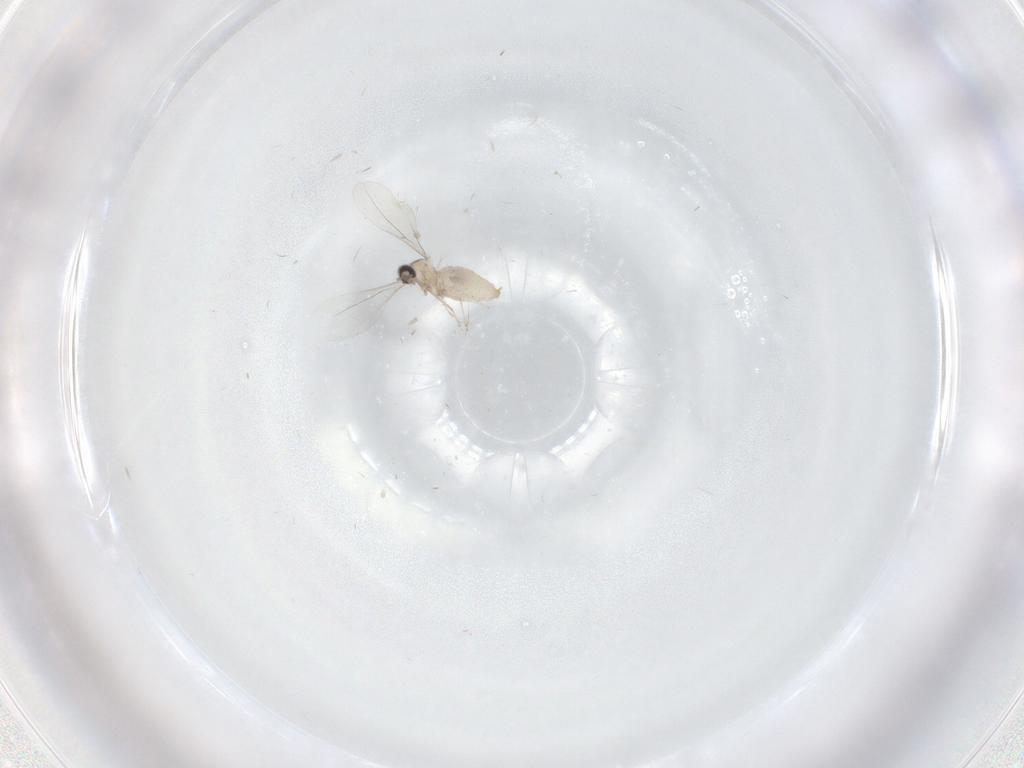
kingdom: Animalia
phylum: Arthropoda
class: Insecta
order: Diptera
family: Cecidomyiidae
